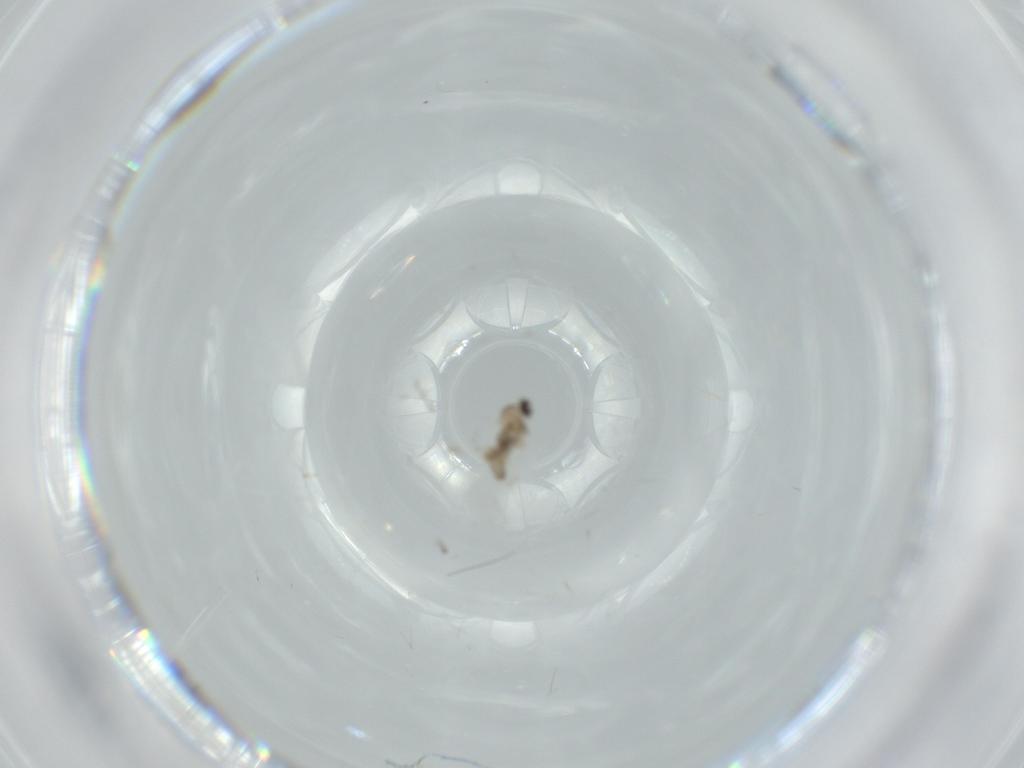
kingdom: Animalia
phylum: Arthropoda
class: Insecta
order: Diptera
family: Cecidomyiidae
